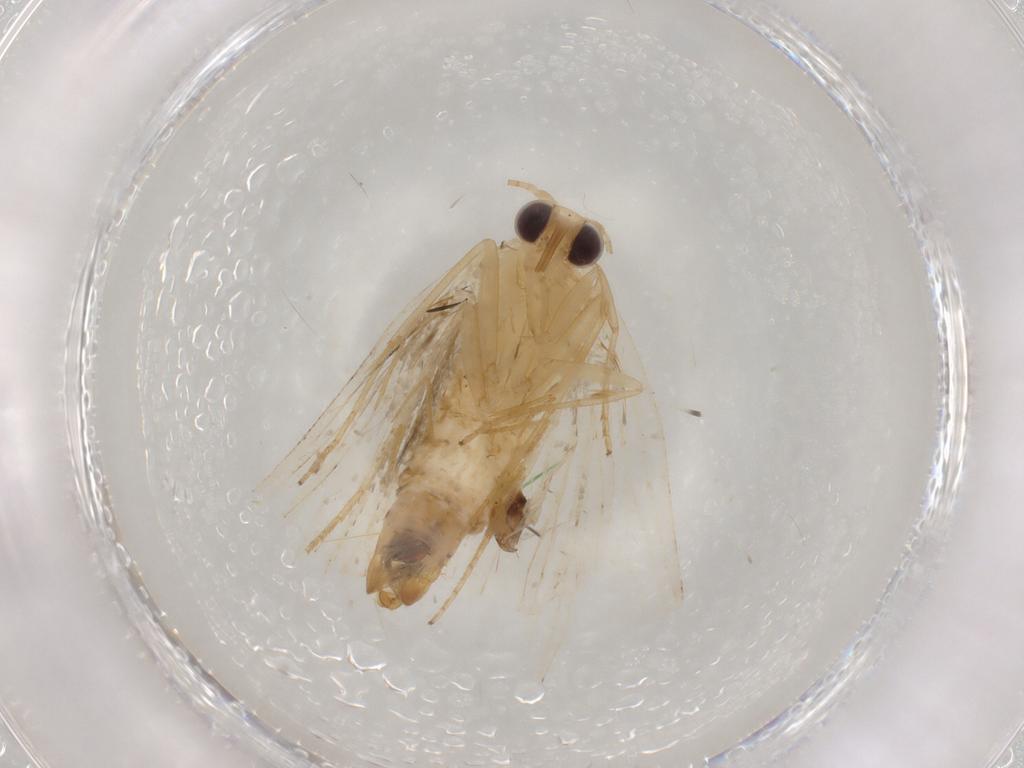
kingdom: Animalia
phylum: Arthropoda
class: Insecta
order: Lepidoptera
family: Erebidae
